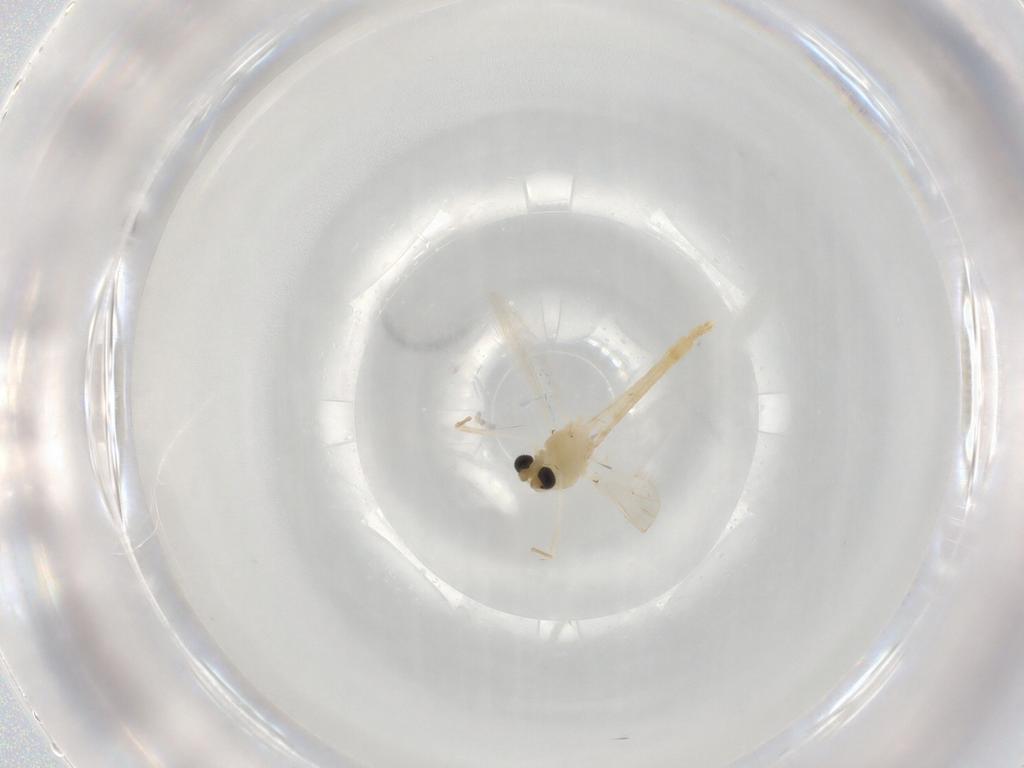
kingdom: Animalia
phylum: Arthropoda
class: Insecta
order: Diptera
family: Chironomidae
